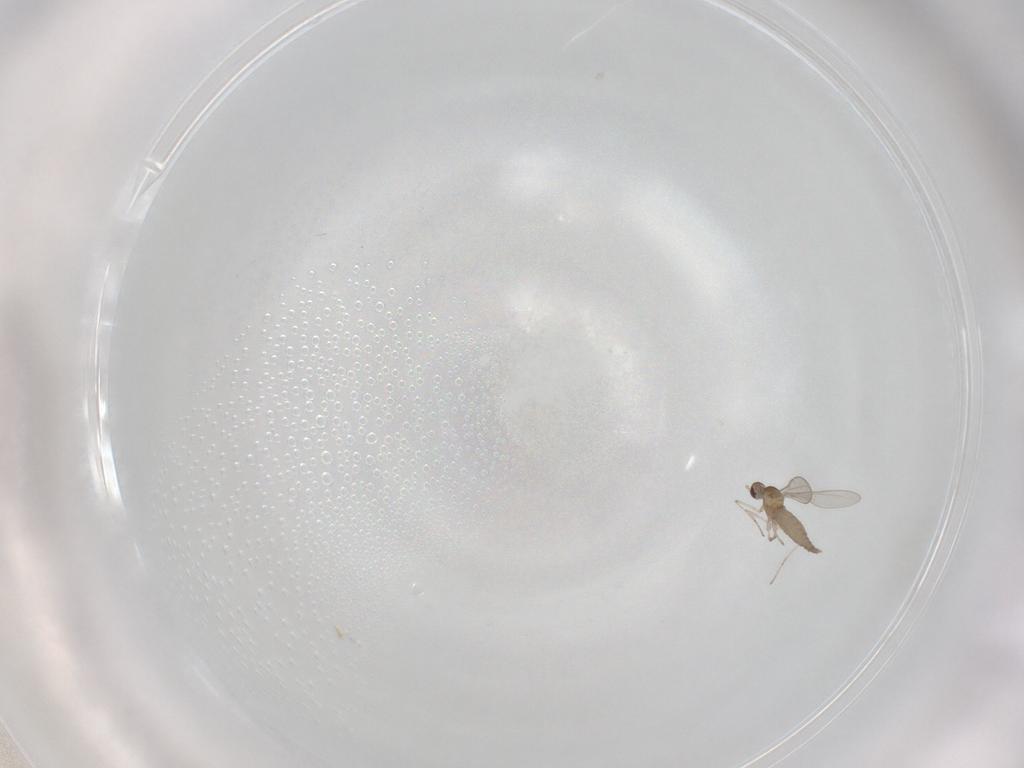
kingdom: Animalia
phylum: Arthropoda
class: Insecta
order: Diptera
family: Cecidomyiidae
